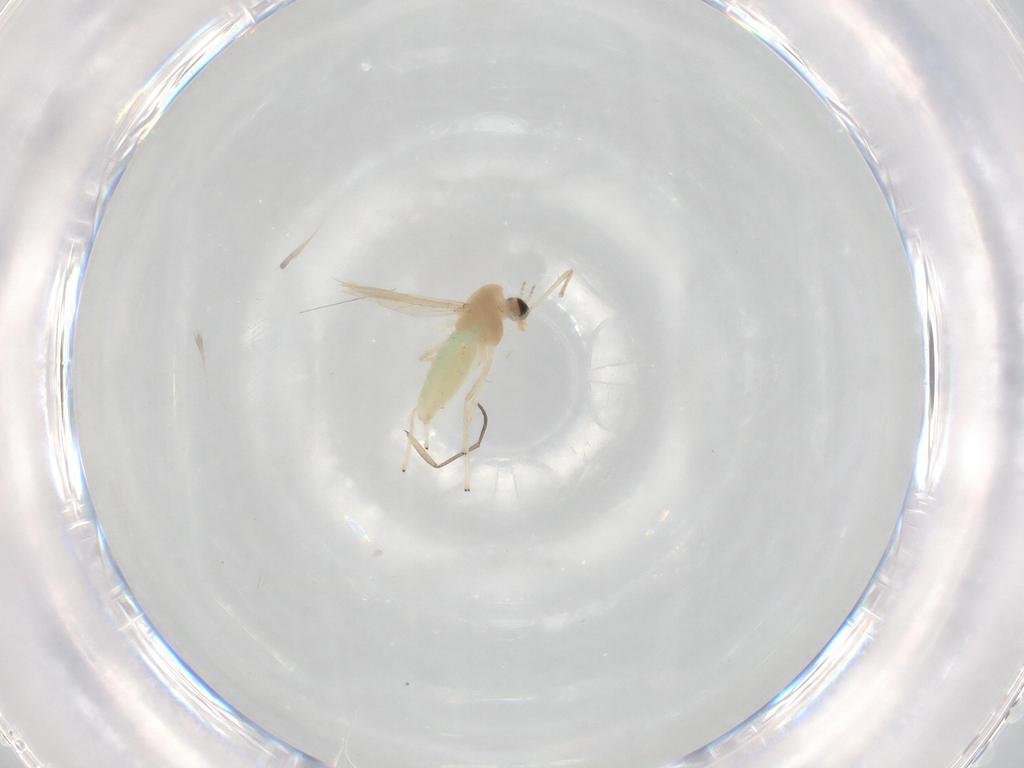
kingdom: Animalia
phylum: Arthropoda
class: Insecta
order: Diptera
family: Chironomidae
